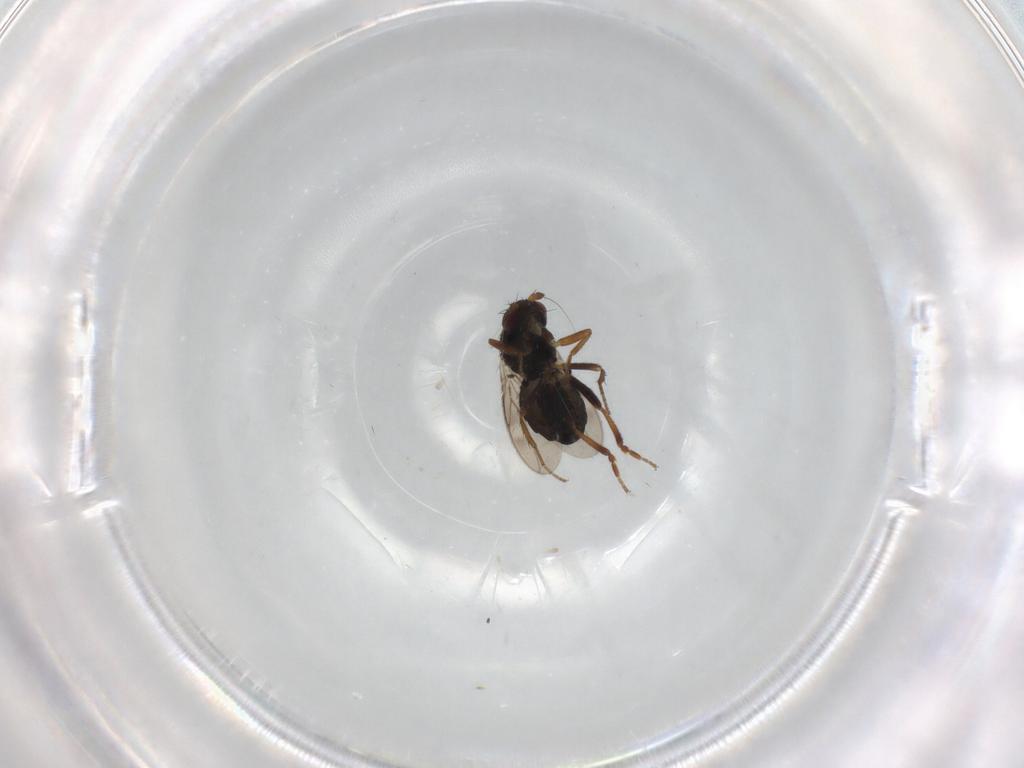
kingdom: Animalia
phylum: Arthropoda
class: Insecta
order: Diptera
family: Sphaeroceridae
